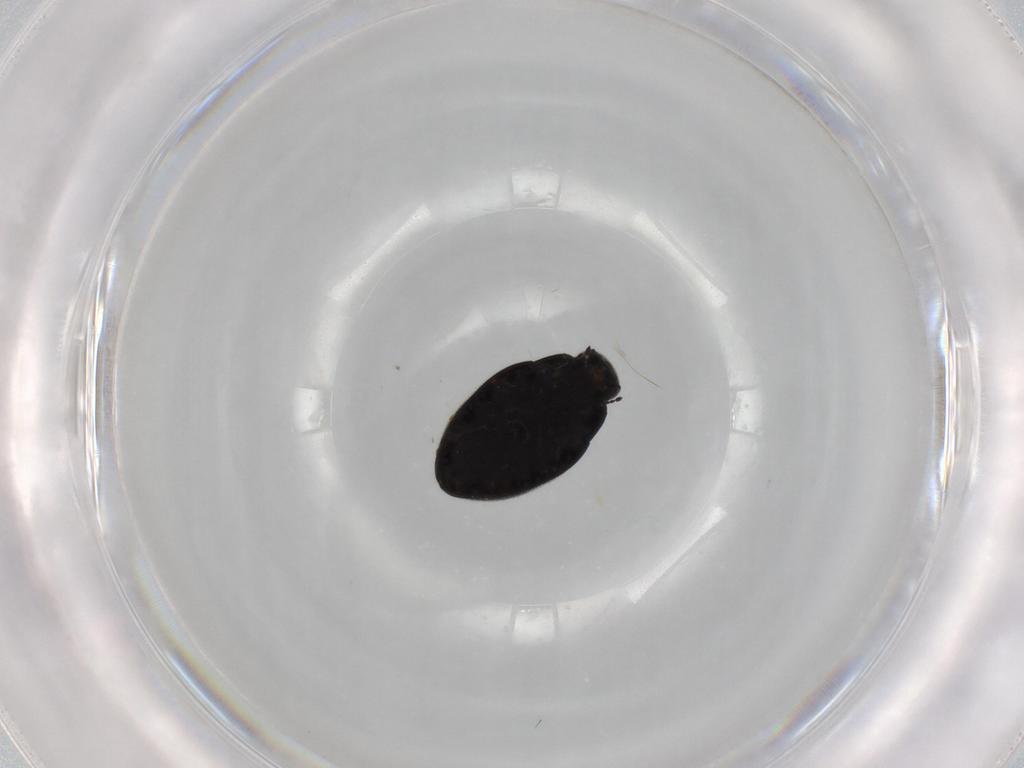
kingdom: Animalia
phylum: Arthropoda
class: Insecta
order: Coleoptera
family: Limnichidae
